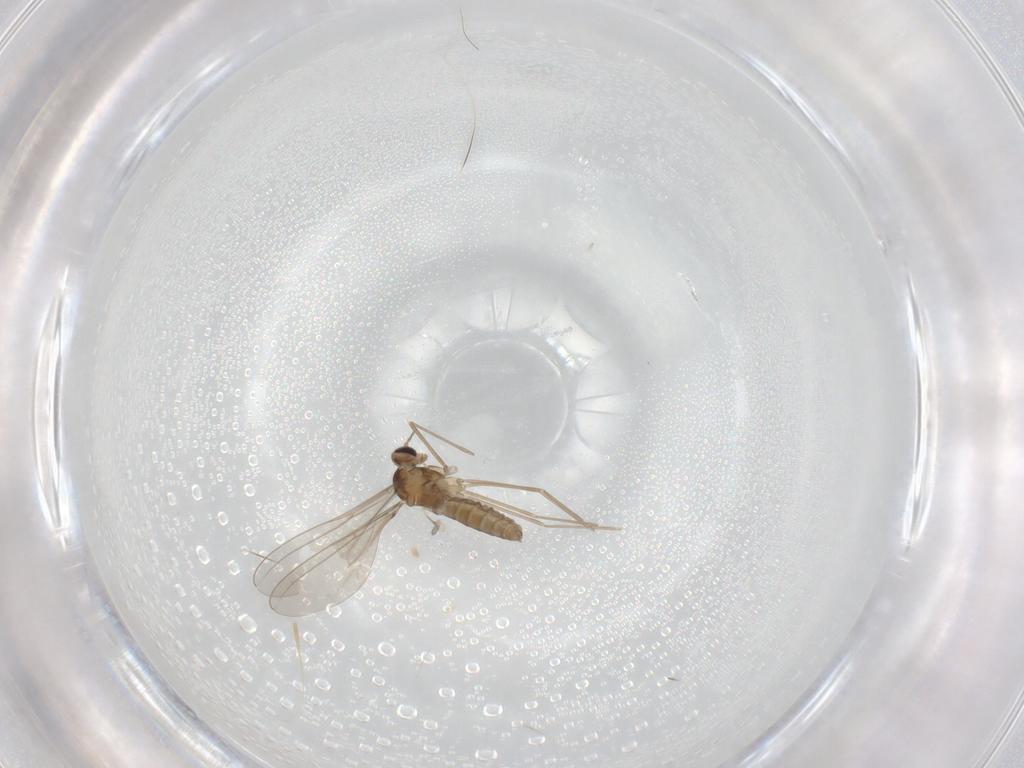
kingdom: Animalia
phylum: Arthropoda
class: Insecta
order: Diptera
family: Cecidomyiidae
